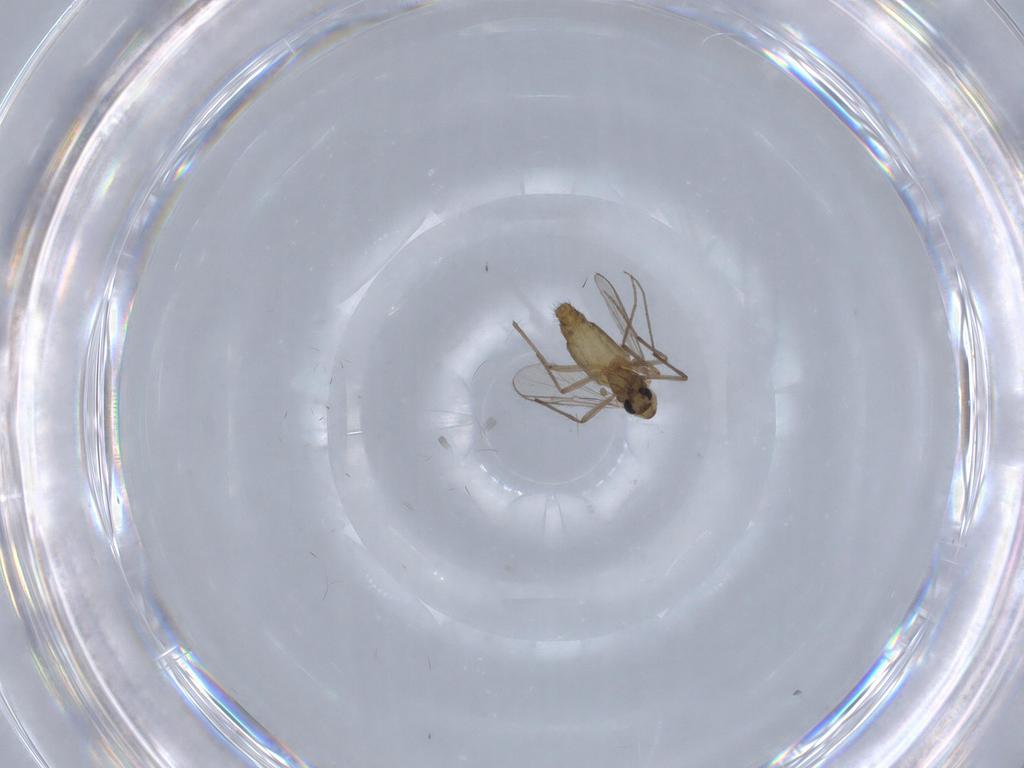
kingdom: Animalia
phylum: Arthropoda
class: Insecta
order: Diptera
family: Chironomidae
